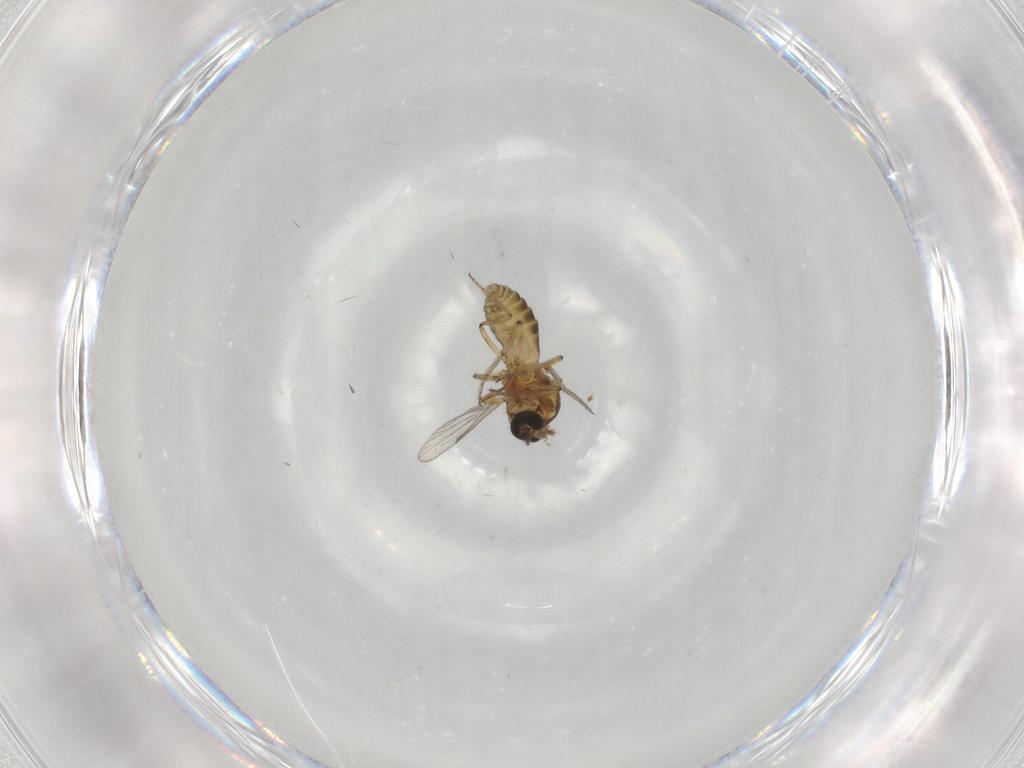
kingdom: Animalia
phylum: Arthropoda
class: Insecta
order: Diptera
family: Ceratopogonidae
